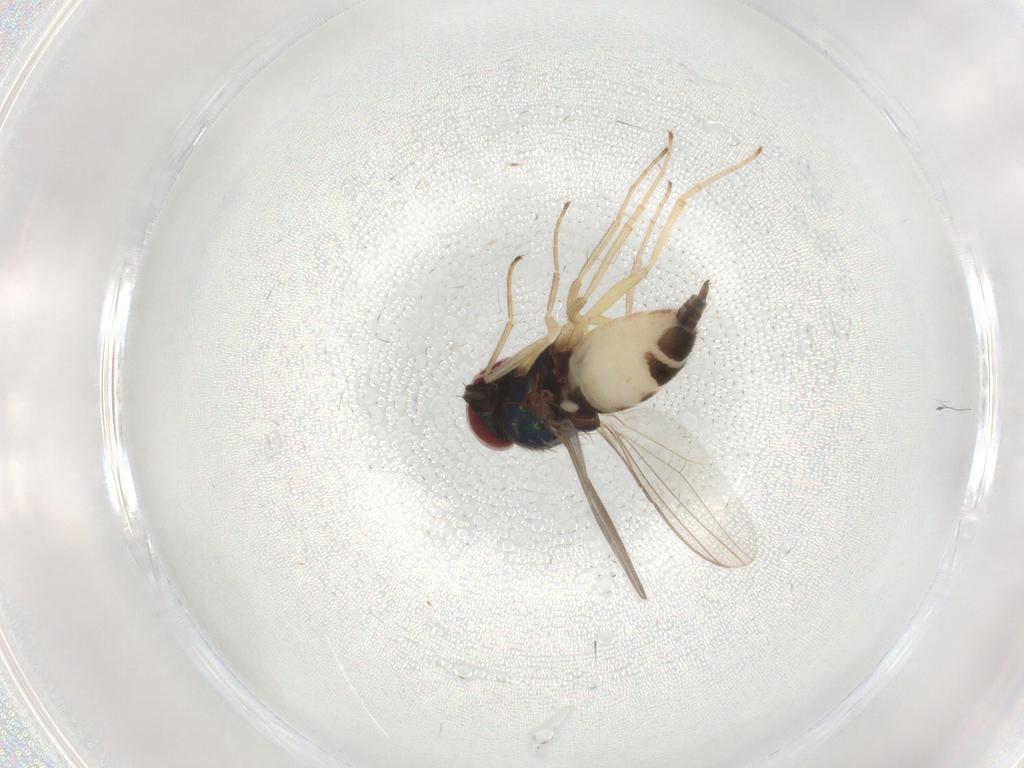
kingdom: Animalia
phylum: Arthropoda
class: Insecta
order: Diptera
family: Dolichopodidae
